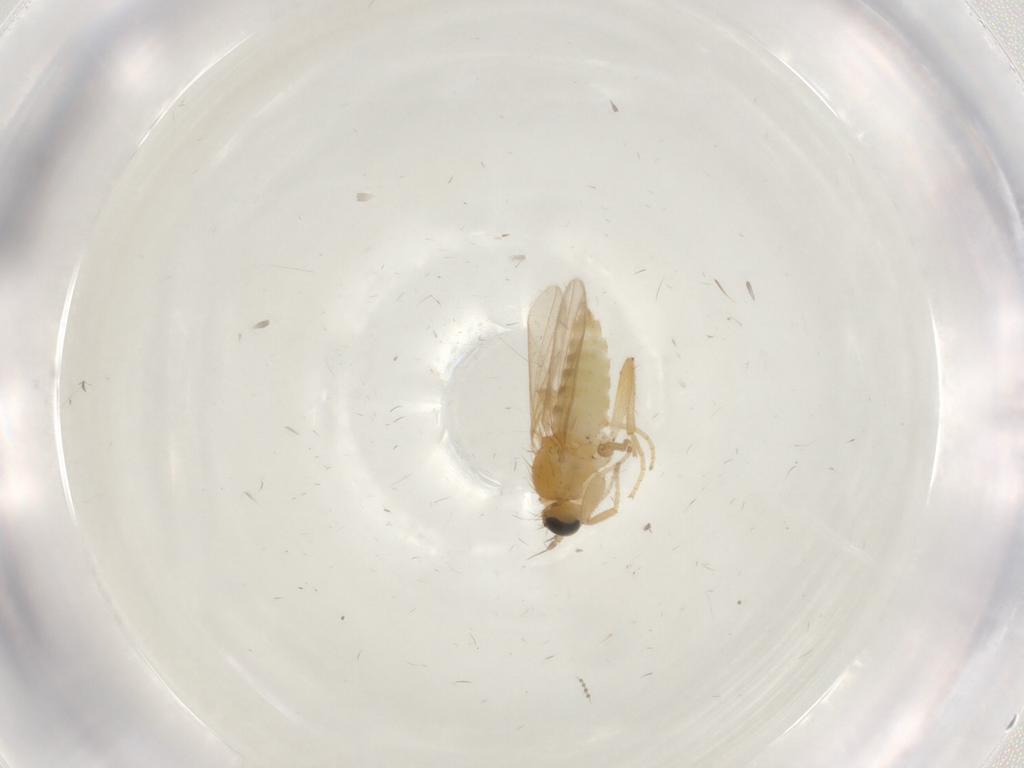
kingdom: Animalia
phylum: Arthropoda
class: Insecta
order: Diptera
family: Hybotidae
